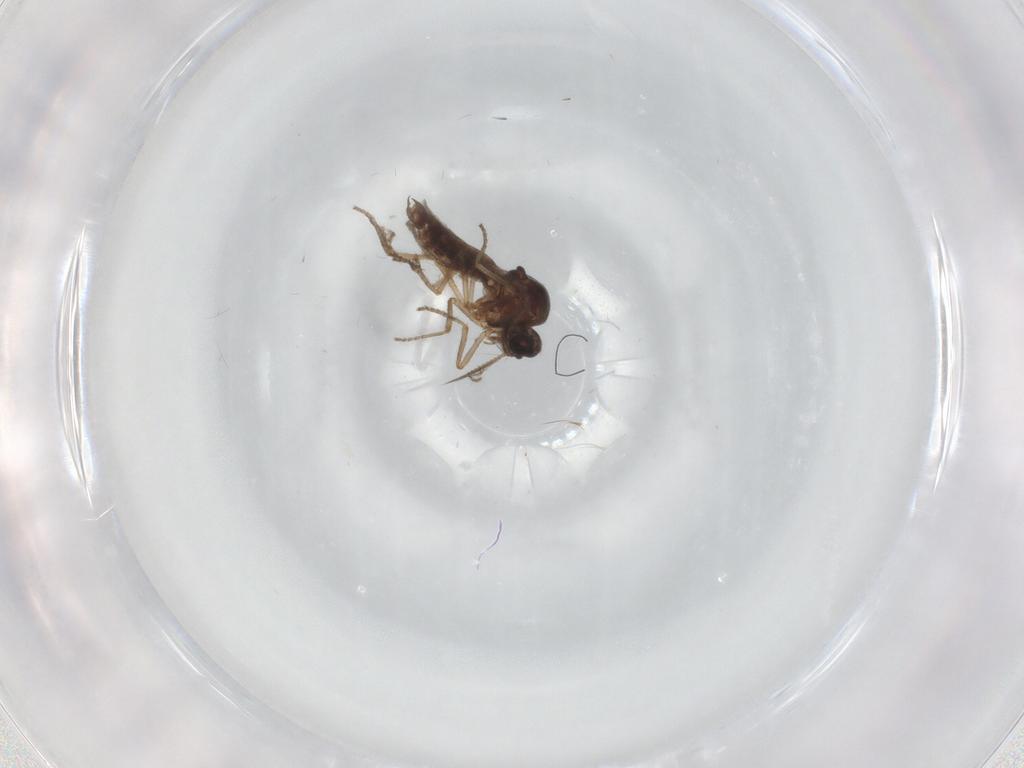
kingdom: Animalia
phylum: Arthropoda
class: Insecta
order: Diptera
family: Ceratopogonidae
